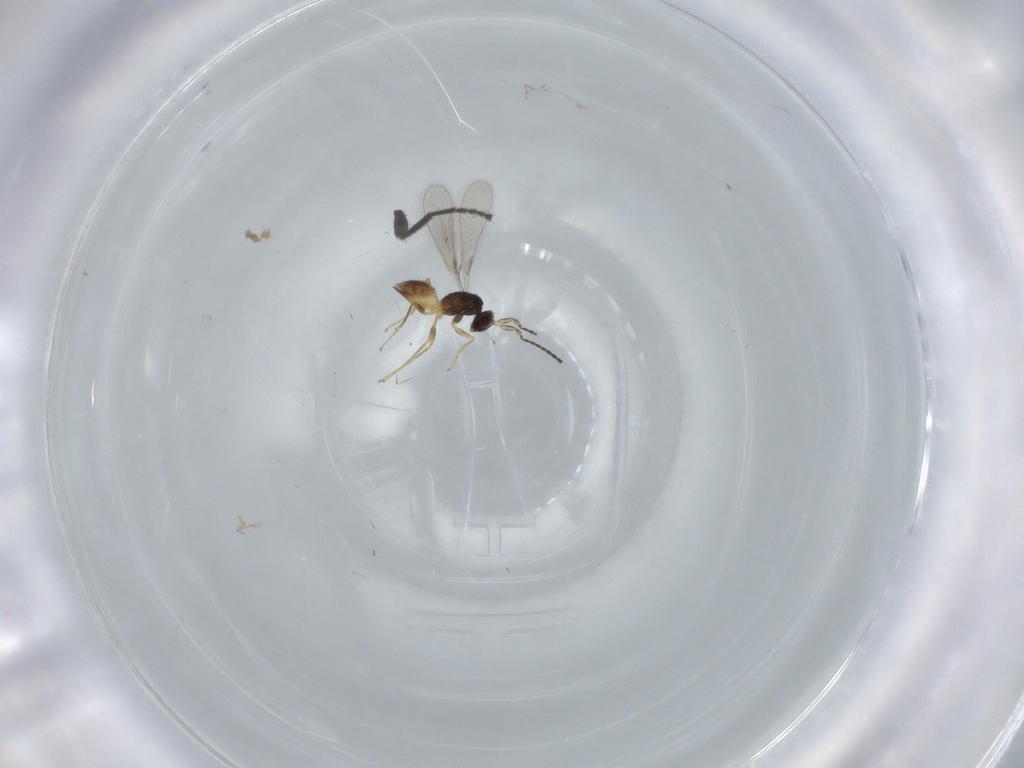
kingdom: Animalia
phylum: Arthropoda
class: Insecta
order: Hymenoptera
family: Mymaridae
